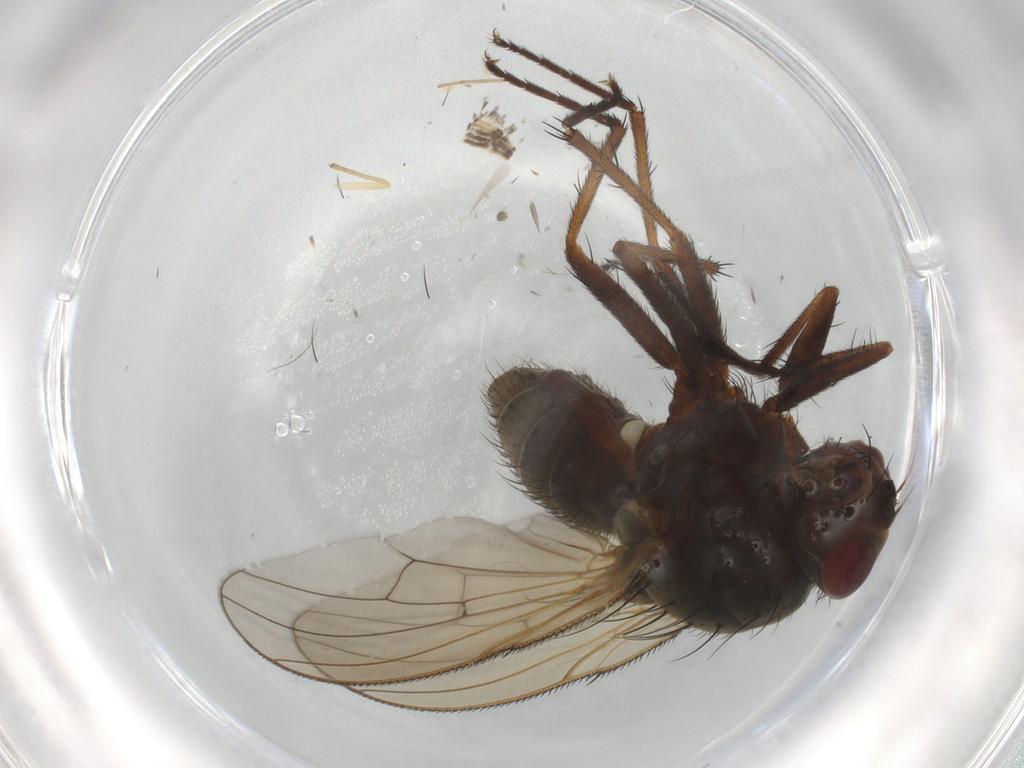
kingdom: Animalia
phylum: Arthropoda
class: Insecta
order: Diptera
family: Anthomyiidae
